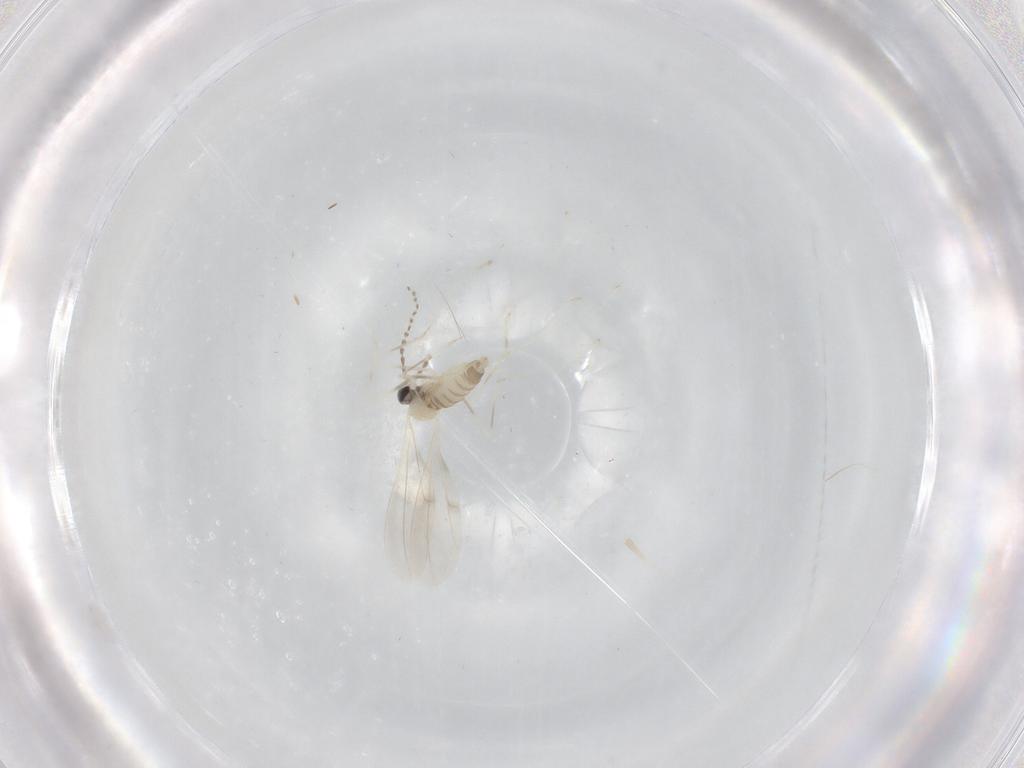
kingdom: Animalia
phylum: Arthropoda
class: Insecta
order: Diptera
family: Cecidomyiidae
